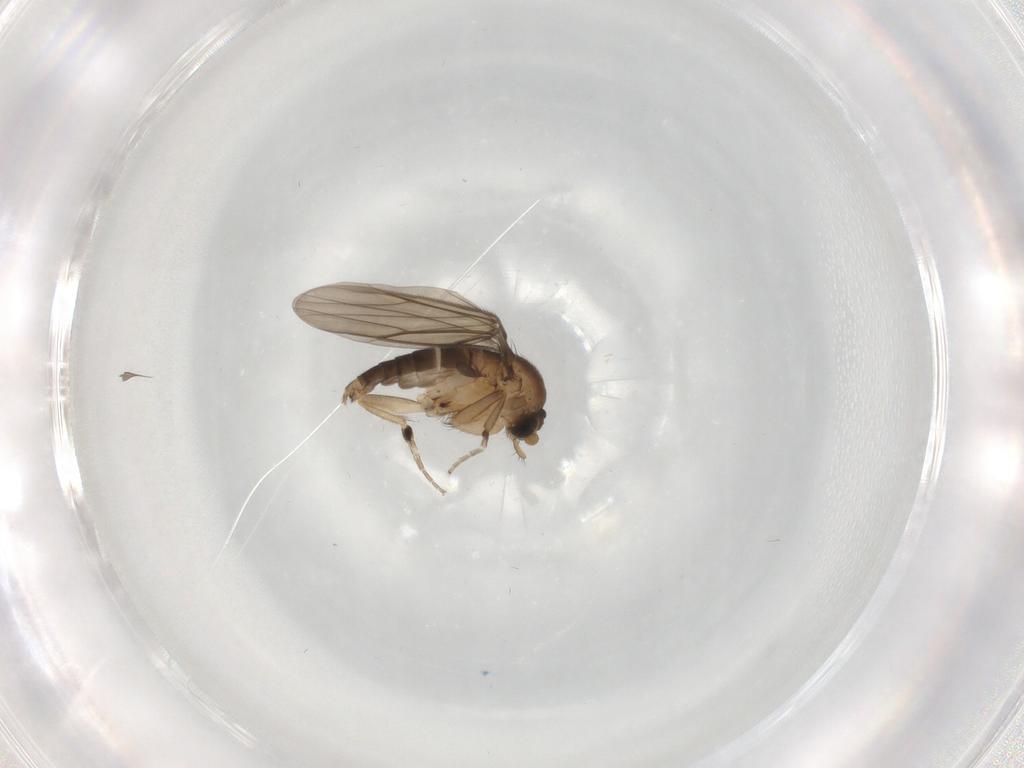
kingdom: Animalia
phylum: Arthropoda
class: Insecta
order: Diptera
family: Phoridae
